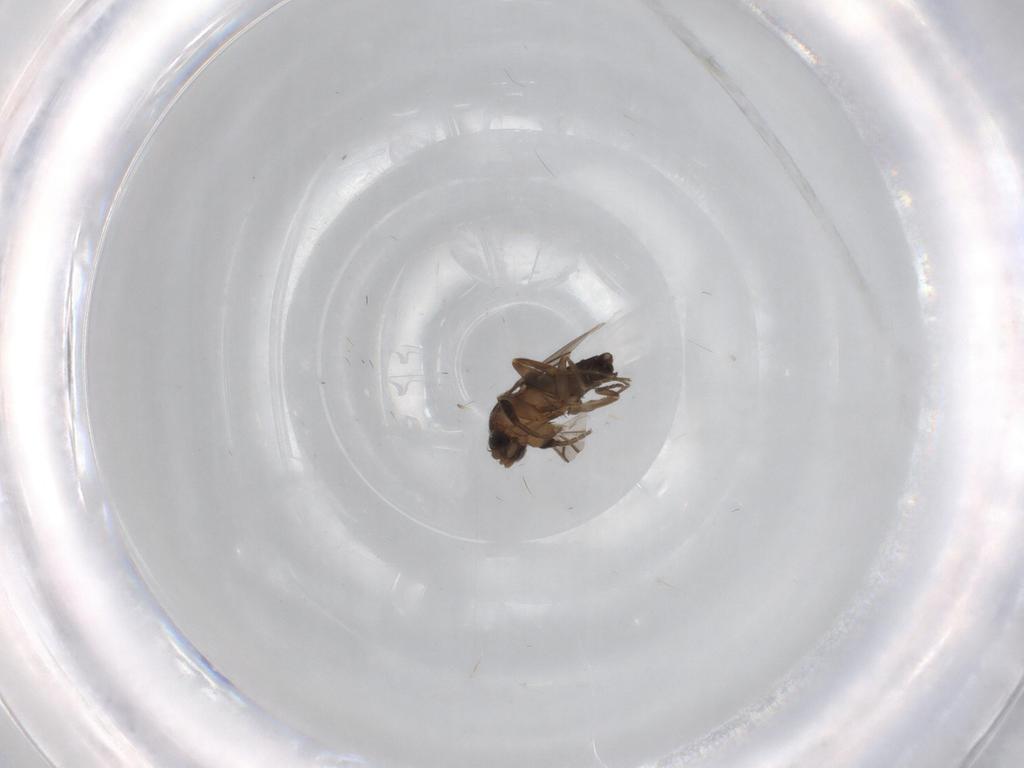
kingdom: Animalia
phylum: Arthropoda
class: Insecta
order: Diptera
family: Phoridae
